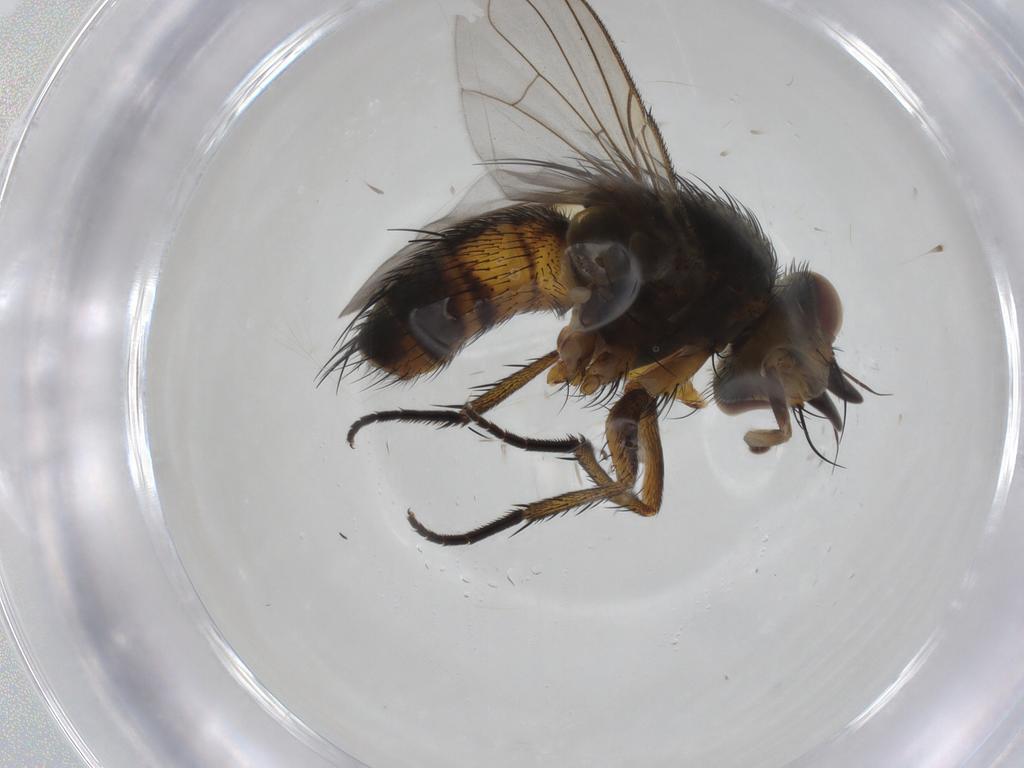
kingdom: Animalia
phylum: Arthropoda
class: Insecta
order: Diptera
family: Tachinidae
